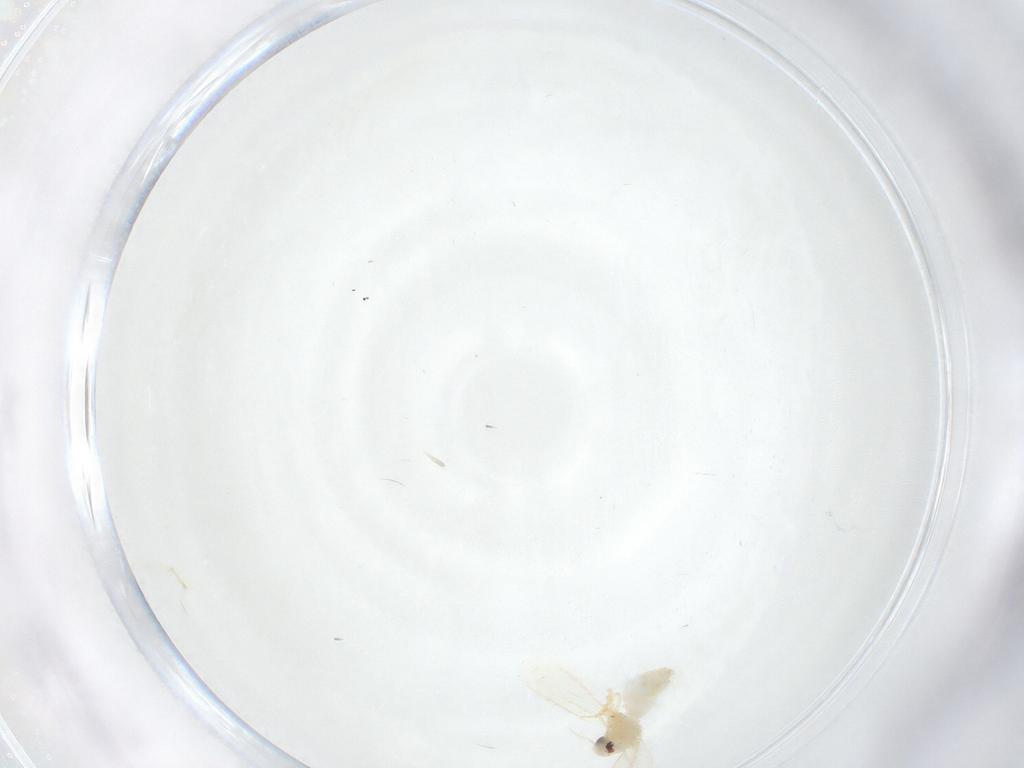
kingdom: Animalia
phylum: Arthropoda
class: Insecta
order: Hemiptera
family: Aleyrodidae
